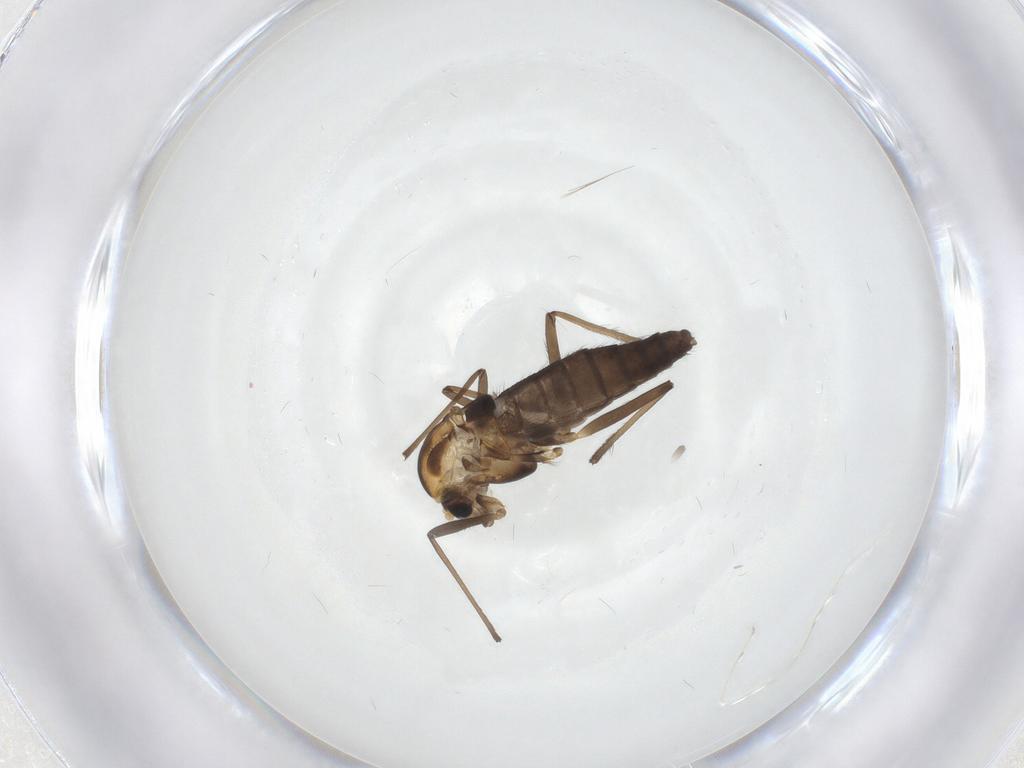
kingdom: Animalia
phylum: Arthropoda
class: Insecta
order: Diptera
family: Chironomidae
